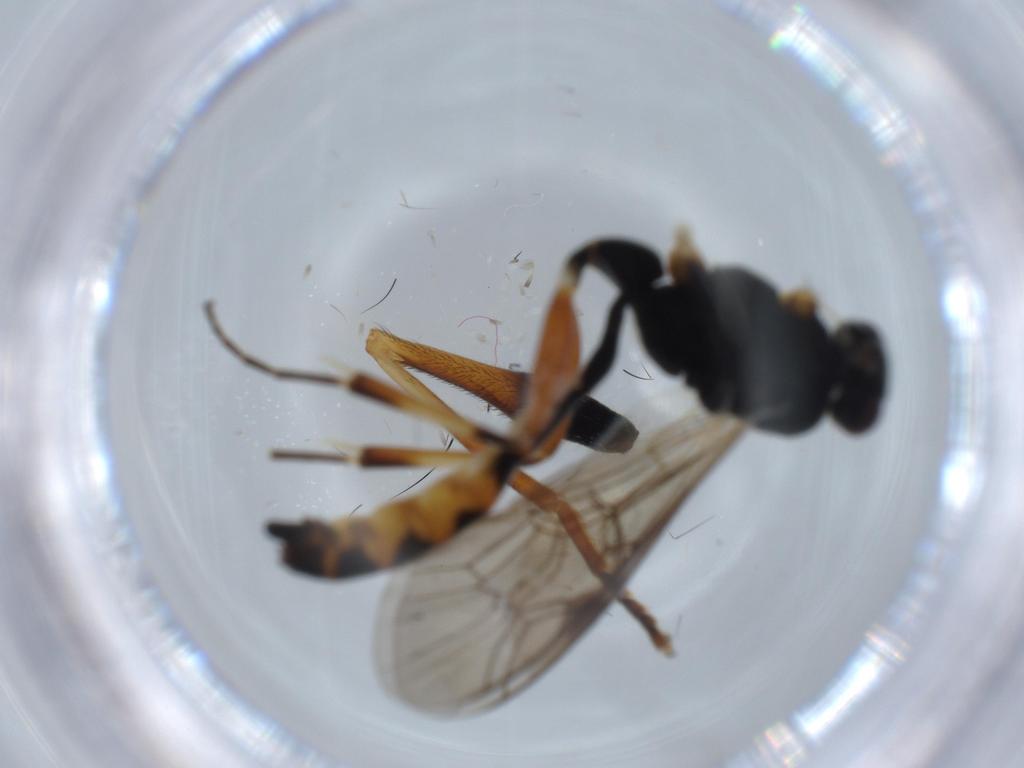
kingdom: Animalia
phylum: Arthropoda
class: Insecta
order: Hymenoptera
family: Ichneumonidae
